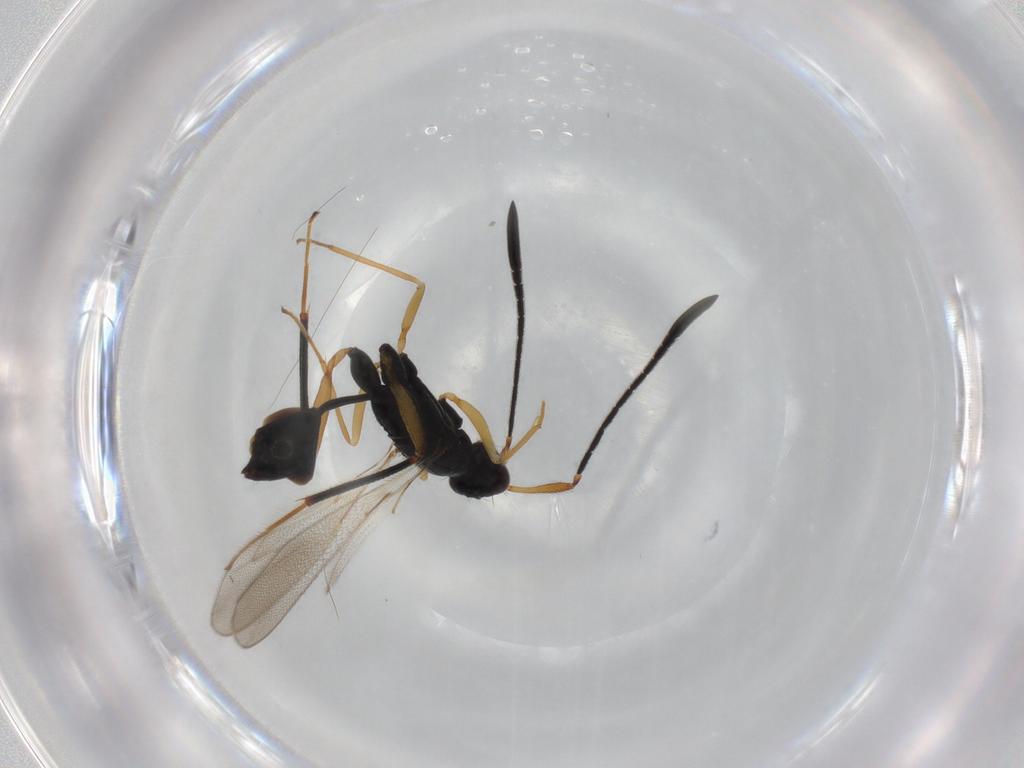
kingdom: Animalia
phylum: Arthropoda
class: Insecta
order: Hymenoptera
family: Mymaridae
